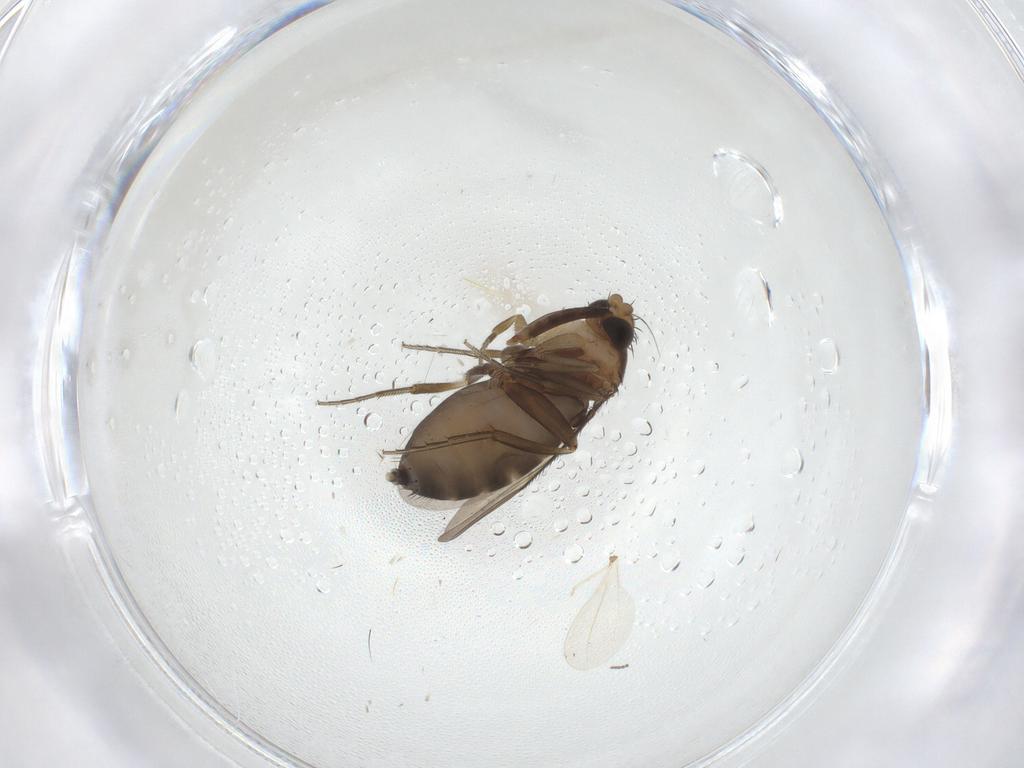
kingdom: Animalia
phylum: Arthropoda
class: Insecta
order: Diptera
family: Phoridae
